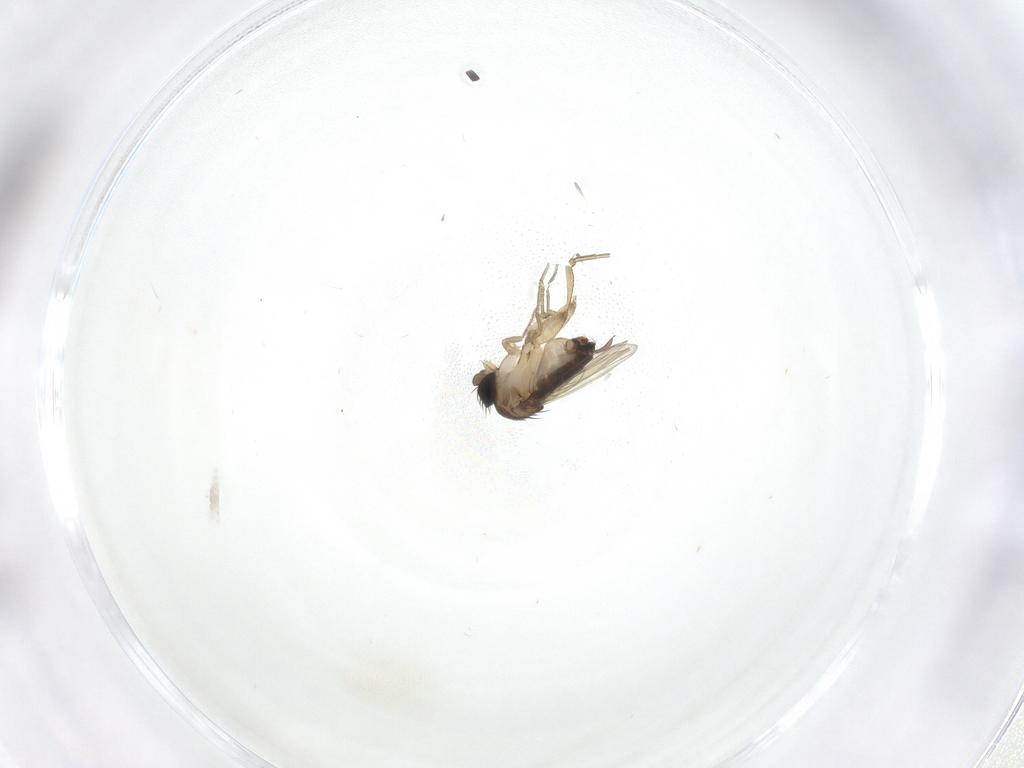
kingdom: Animalia
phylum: Arthropoda
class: Insecta
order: Diptera
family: Phoridae
